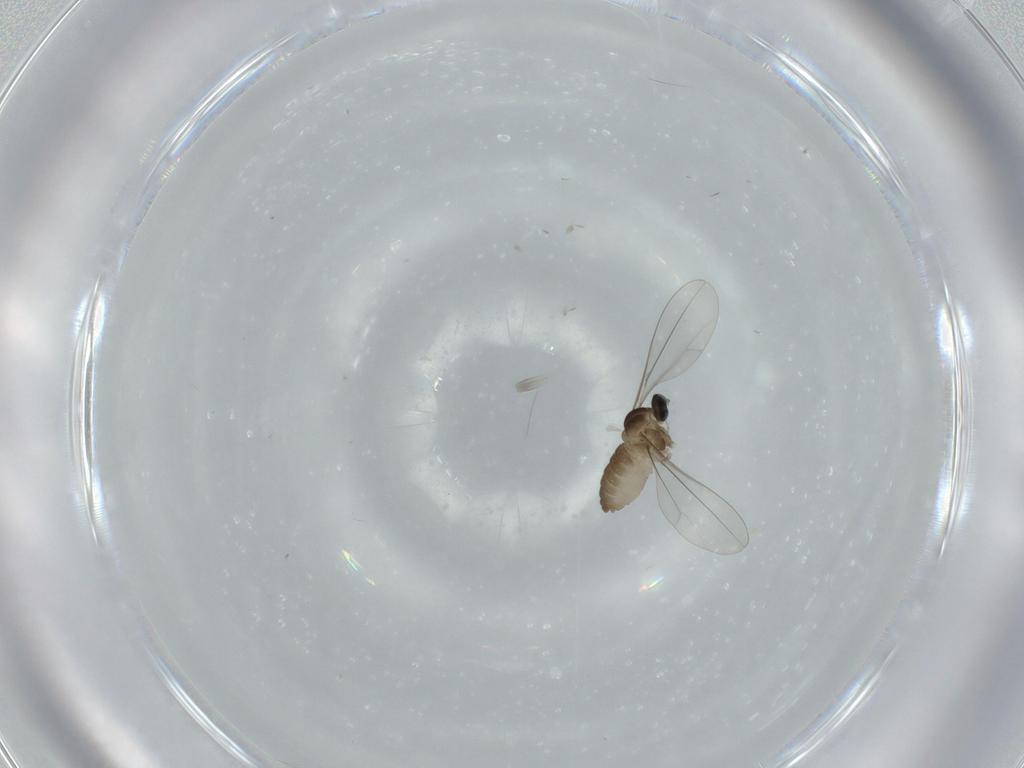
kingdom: Animalia
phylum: Arthropoda
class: Insecta
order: Diptera
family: Cecidomyiidae
